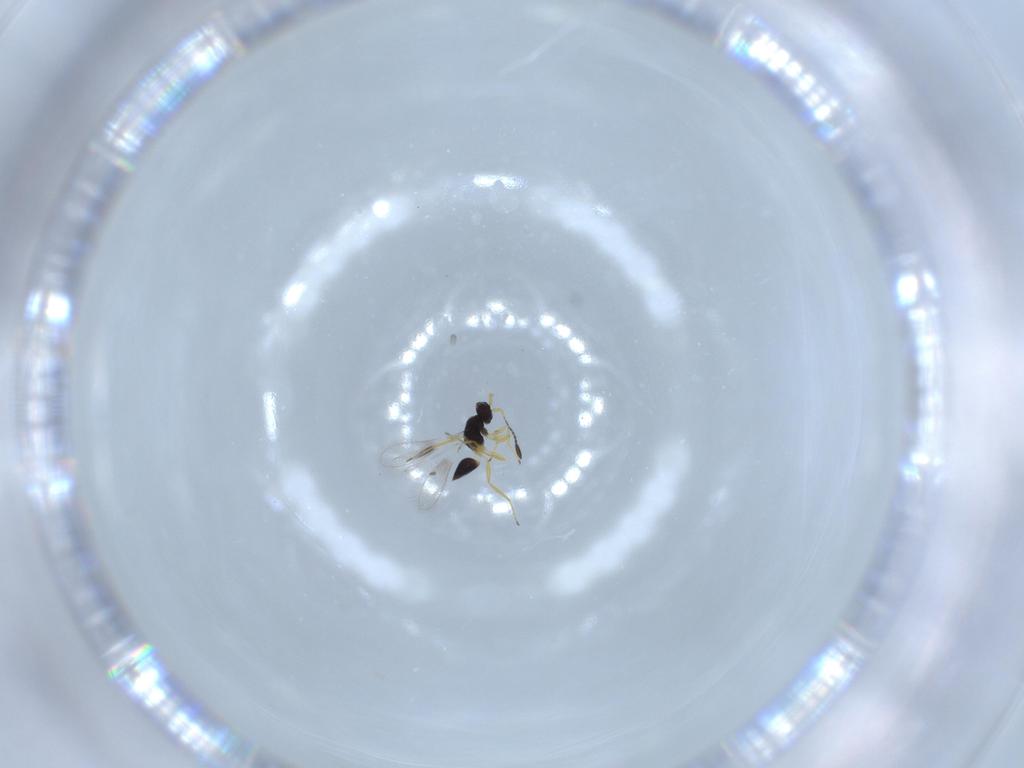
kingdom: Animalia
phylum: Arthropoda
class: Insecta
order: Hymenoptera
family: Mymaridae
